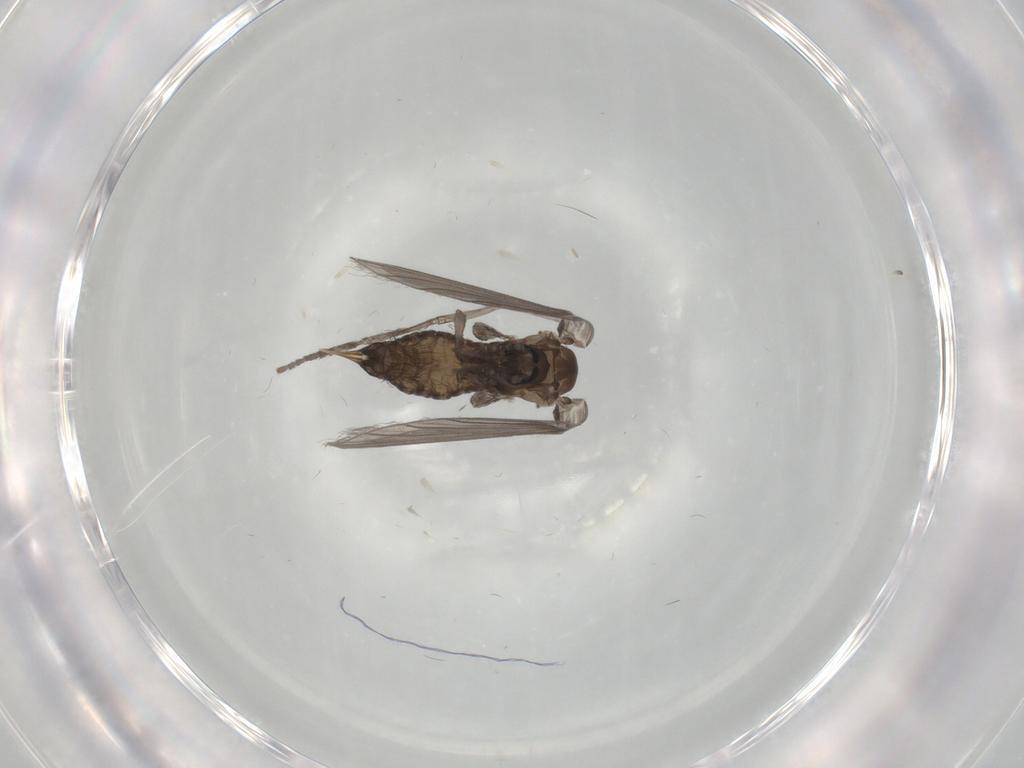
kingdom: Animalia
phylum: Arthropoda
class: Insecta
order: Diptera
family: Psychodidae
